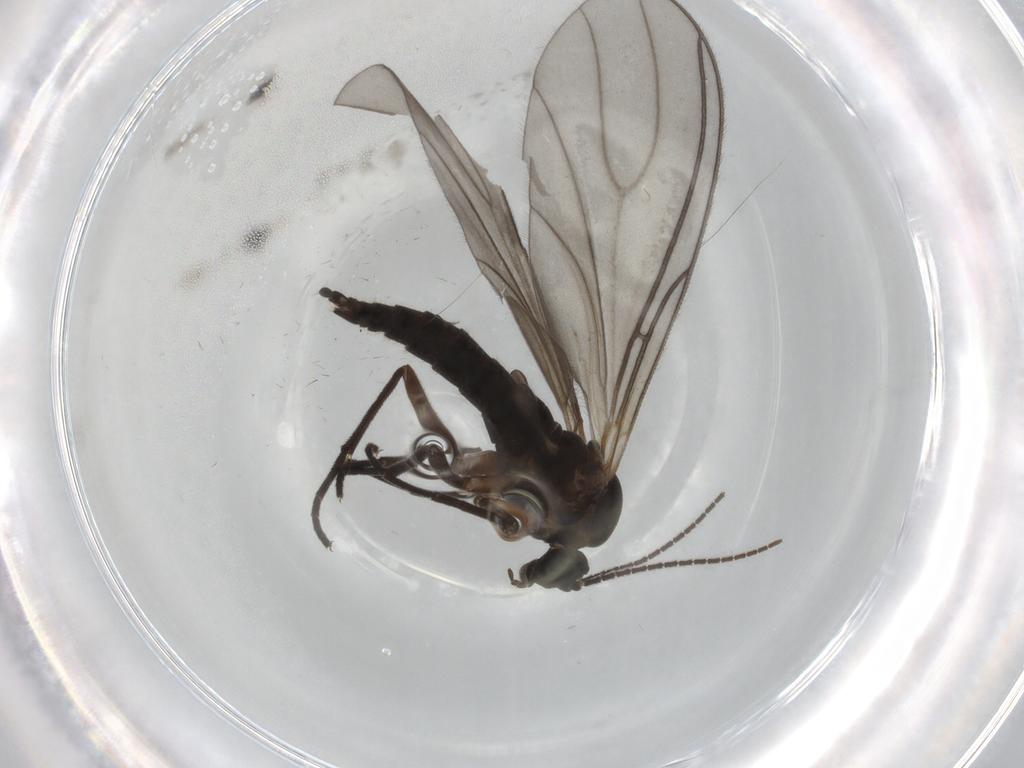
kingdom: Animalia
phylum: Arthropoda
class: Insecta
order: Diptera
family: Sciaridae
